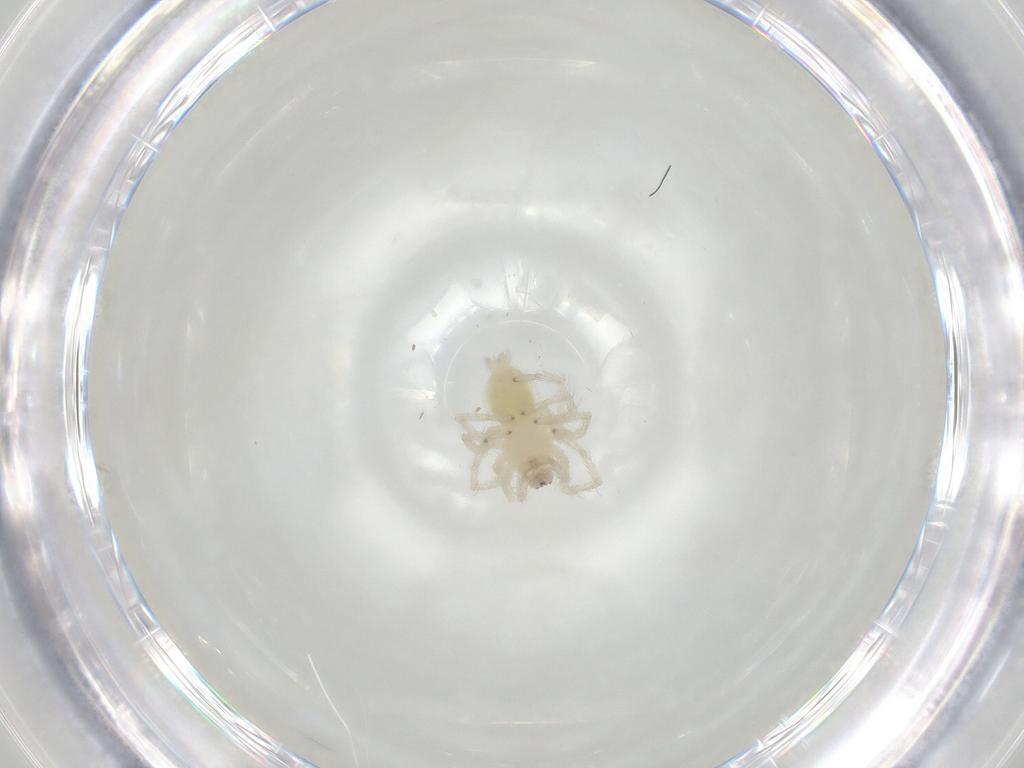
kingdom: Animalia
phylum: Arthropoda
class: Arachnida
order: Araneae
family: Anyphaenidae
